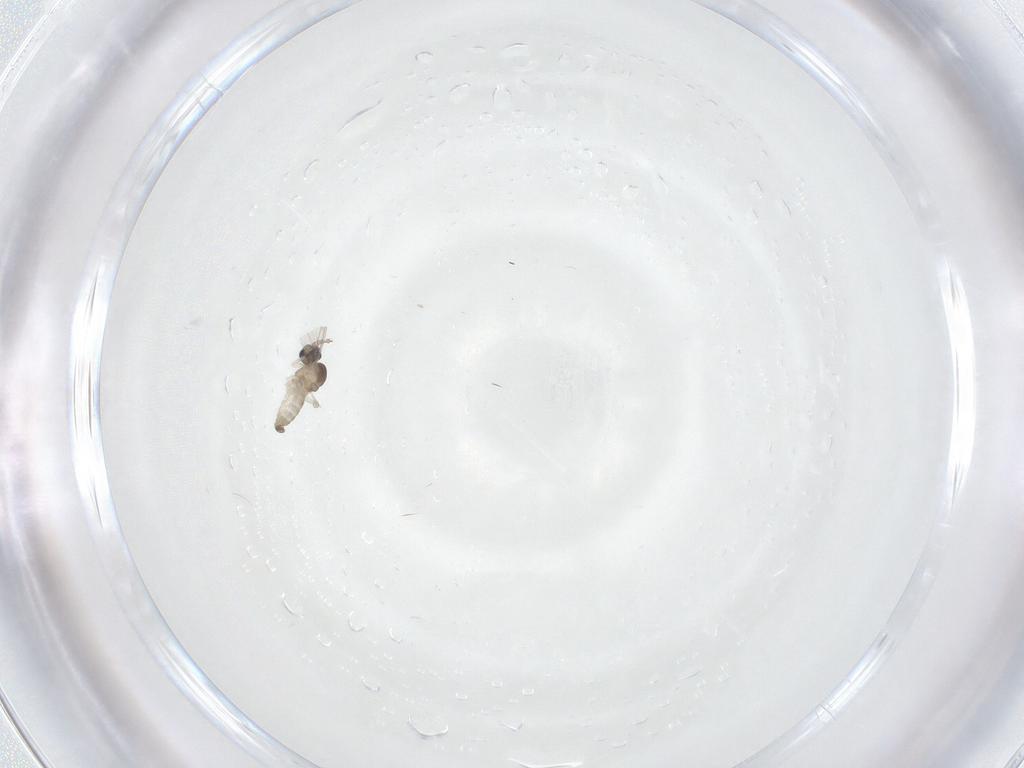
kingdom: Animalia
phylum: Arthropoda
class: Insecta
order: Diptera
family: Cecidomyiidae
